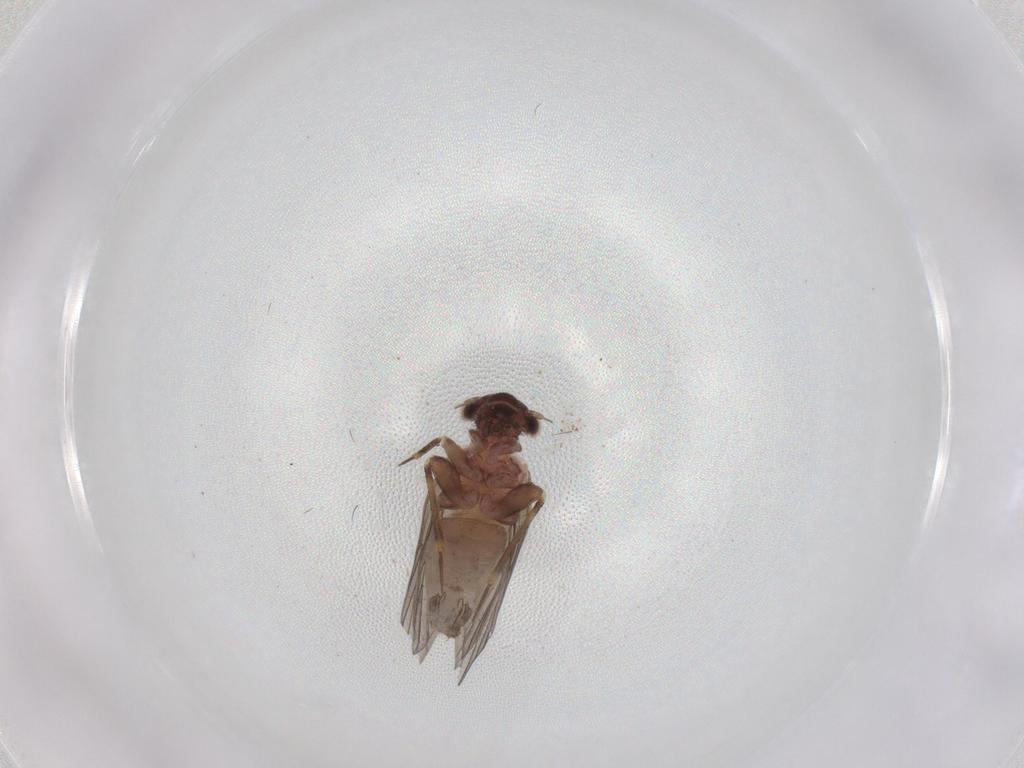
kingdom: Animalia
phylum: Arthropoda
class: Insecta
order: Psocodea
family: Lepidopsocidae
